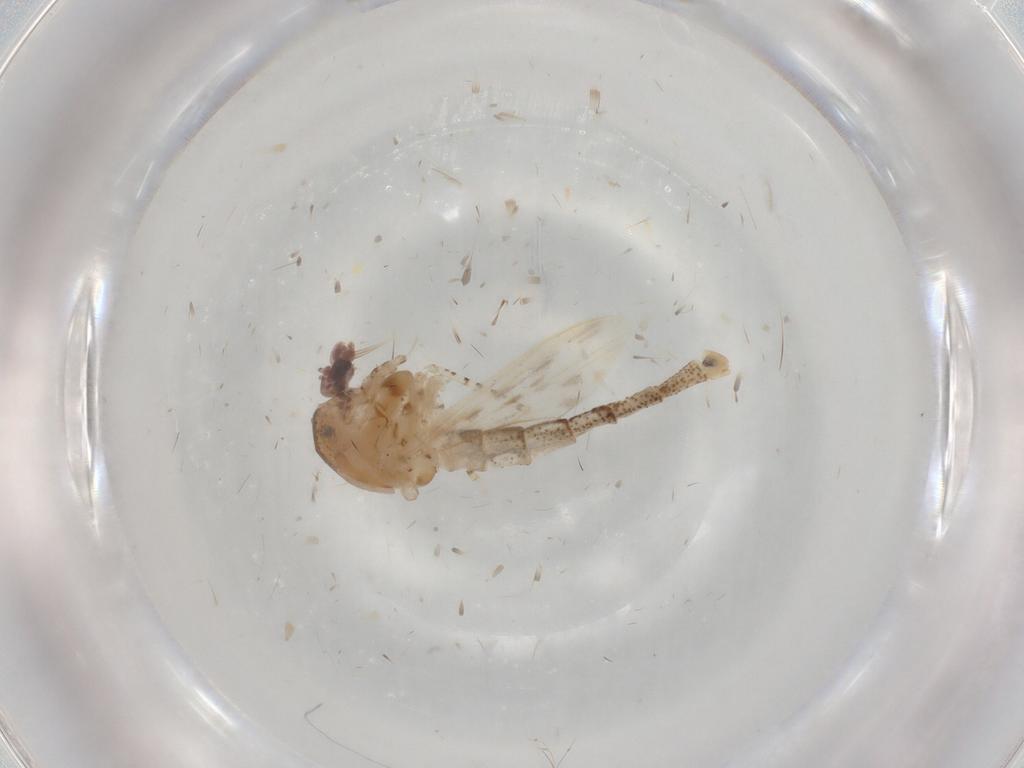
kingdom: Animalia
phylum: Arthropoda
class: Insecta
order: Diptera
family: Chaoboridae
